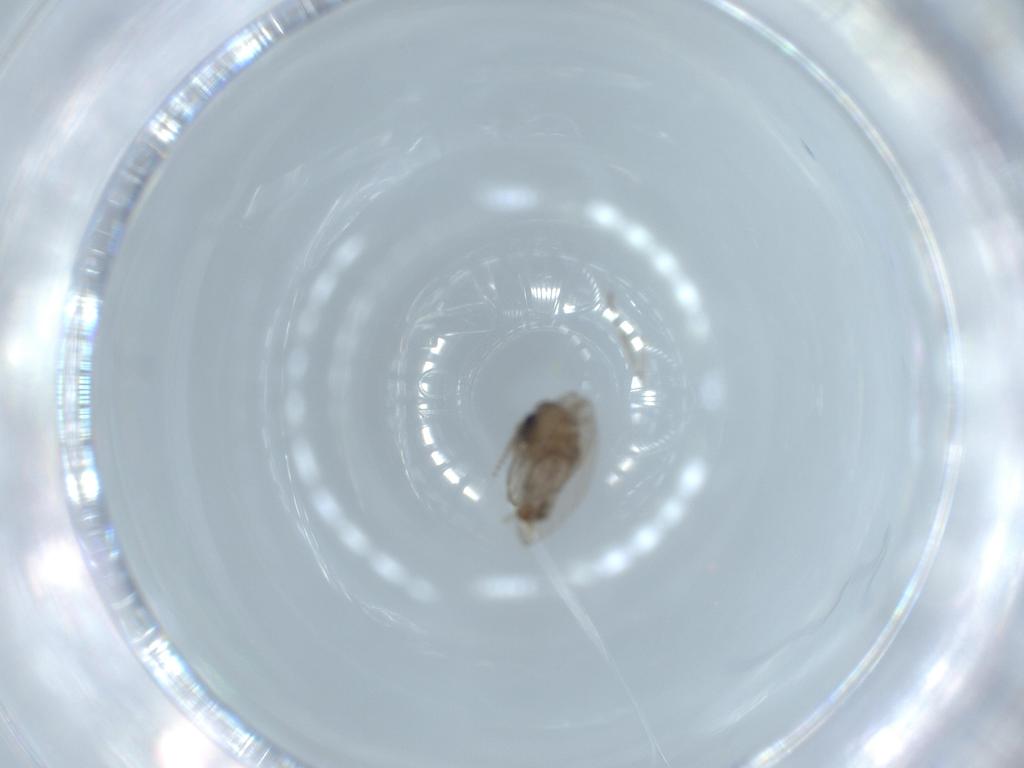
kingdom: Animalia
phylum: Arthropoda
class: Insecta
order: Diptera
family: Psychodidae
